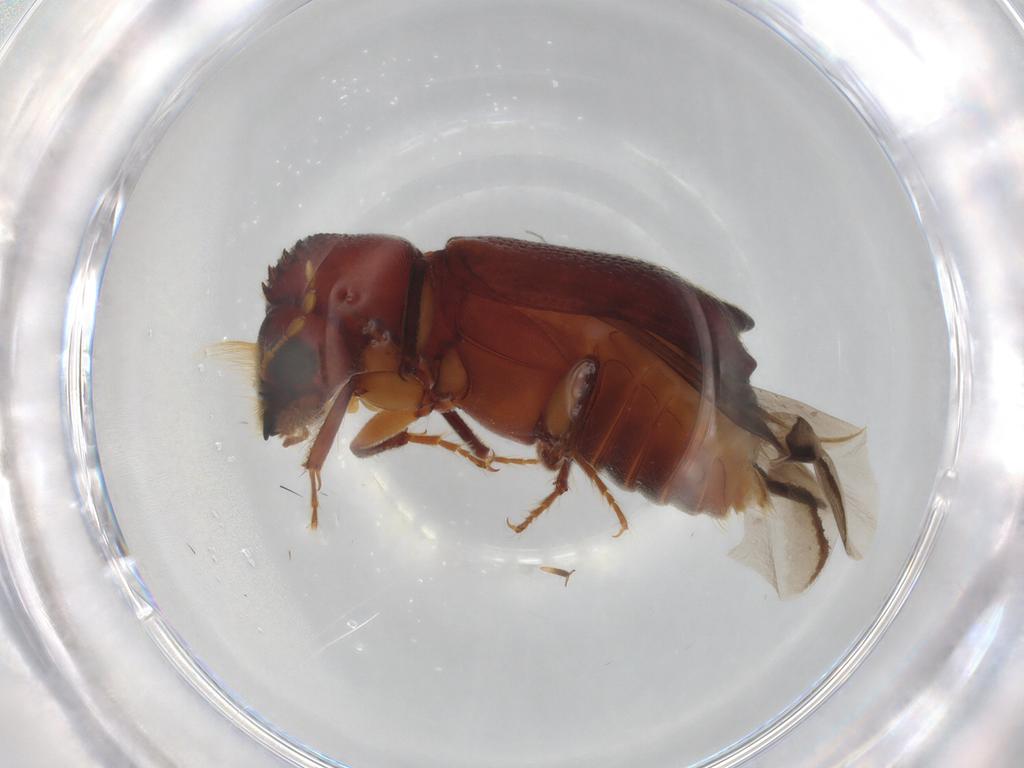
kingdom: Animalia
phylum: Arthropoda
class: Insecta
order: Coleoptera
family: Bostrichidae
